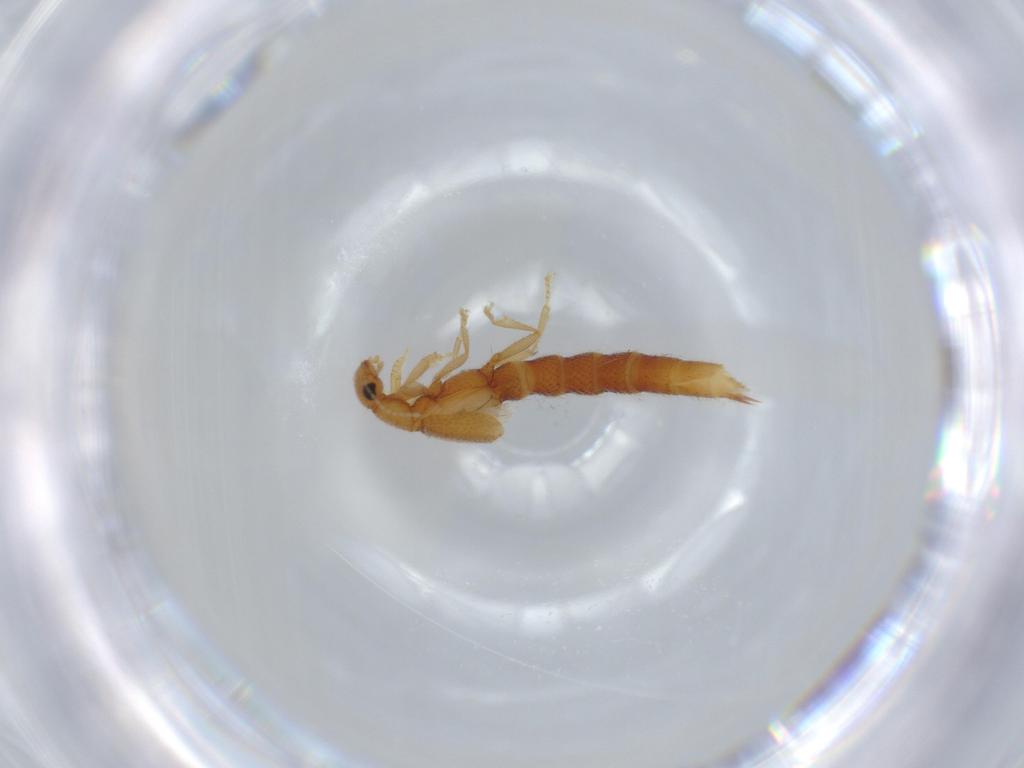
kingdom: Animalia
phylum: Arthropoda
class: Insecta
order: Coleoptera
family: Staphylinidae
